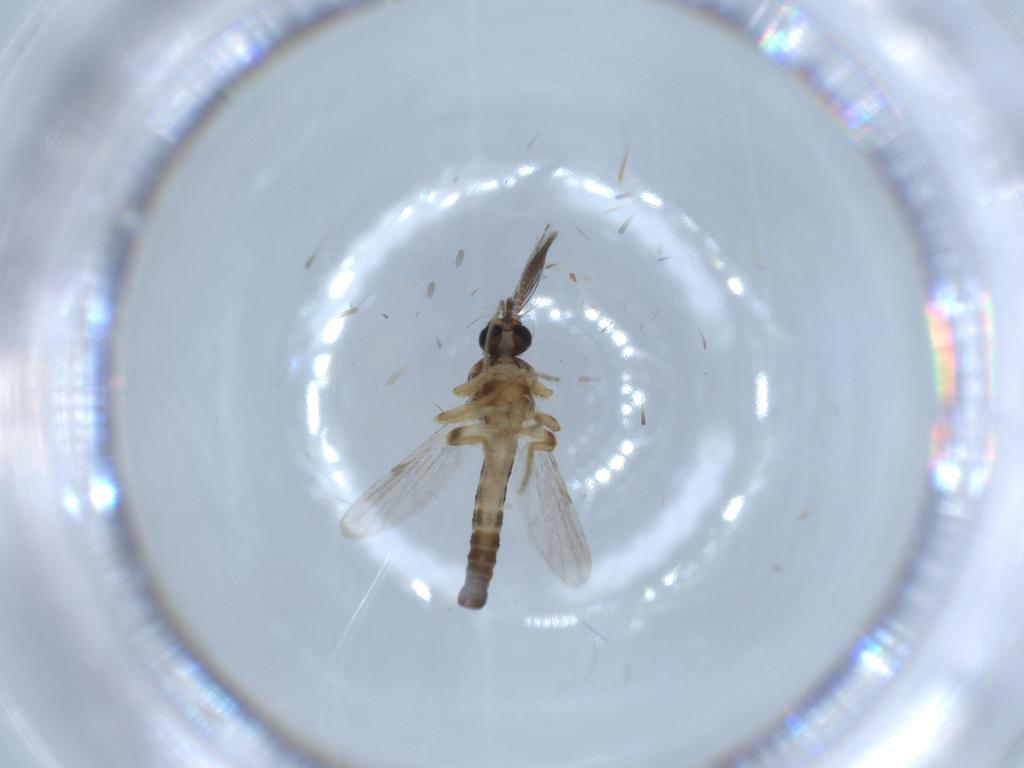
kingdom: Animalia
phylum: Arthropoda
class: Insecta
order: Diptera
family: Ceratopogonidae
